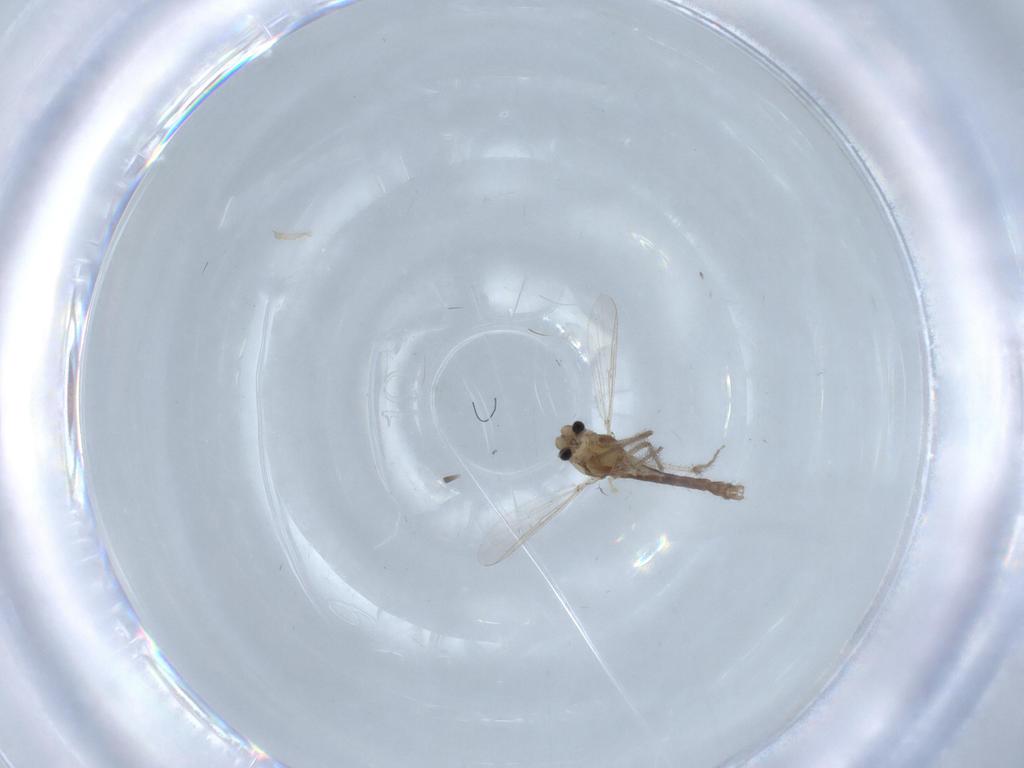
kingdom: Animalia
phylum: Arthropoda
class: Insecta
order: Diptera
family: Chironomidae
